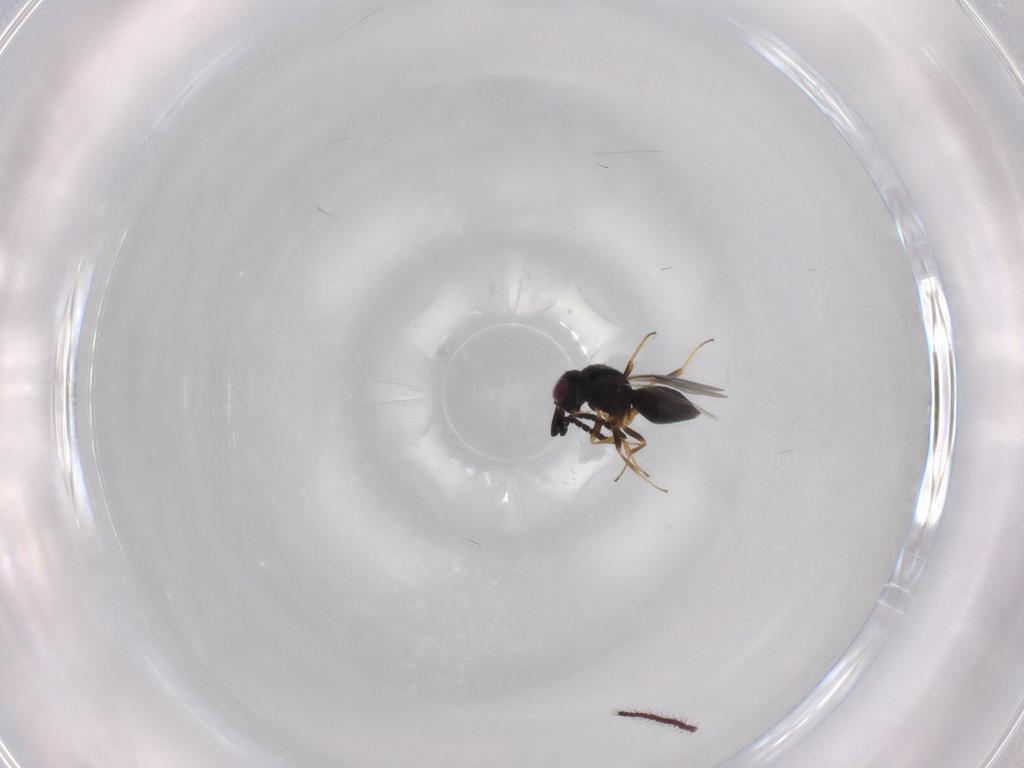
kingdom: Animalia
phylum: Arthropoda
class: Insecta
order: Hymenoptera
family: Megaspilidae
